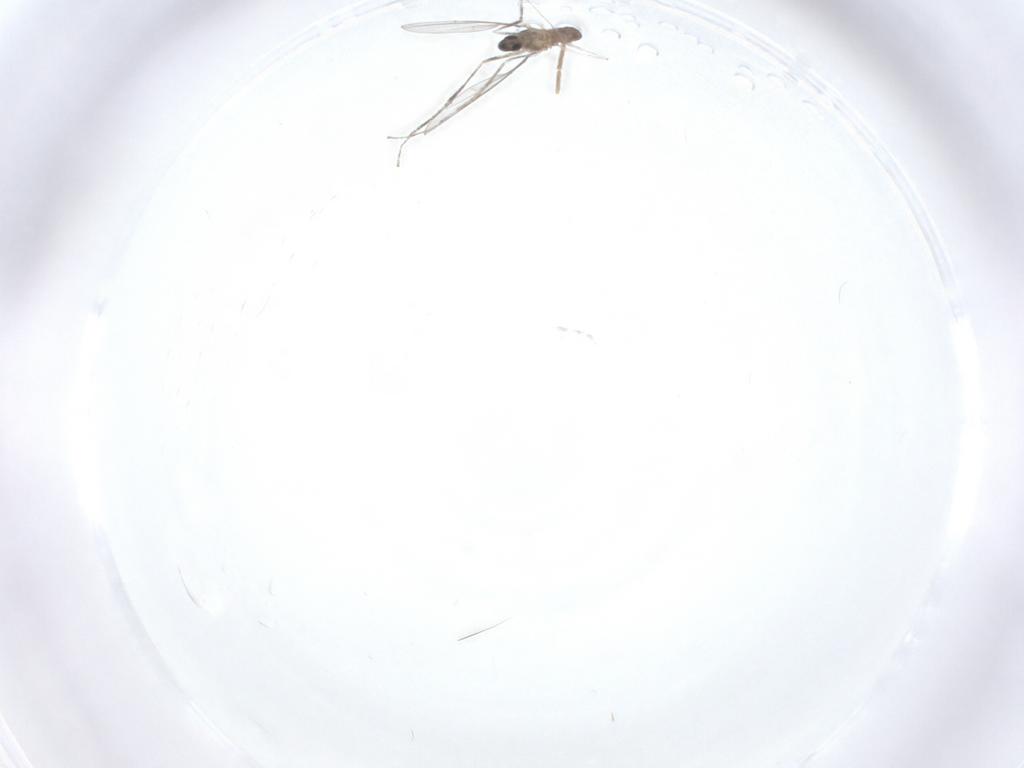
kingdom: Animalia
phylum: Arthropoda
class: Insecta
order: Diptera
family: Cecidomyiidae
